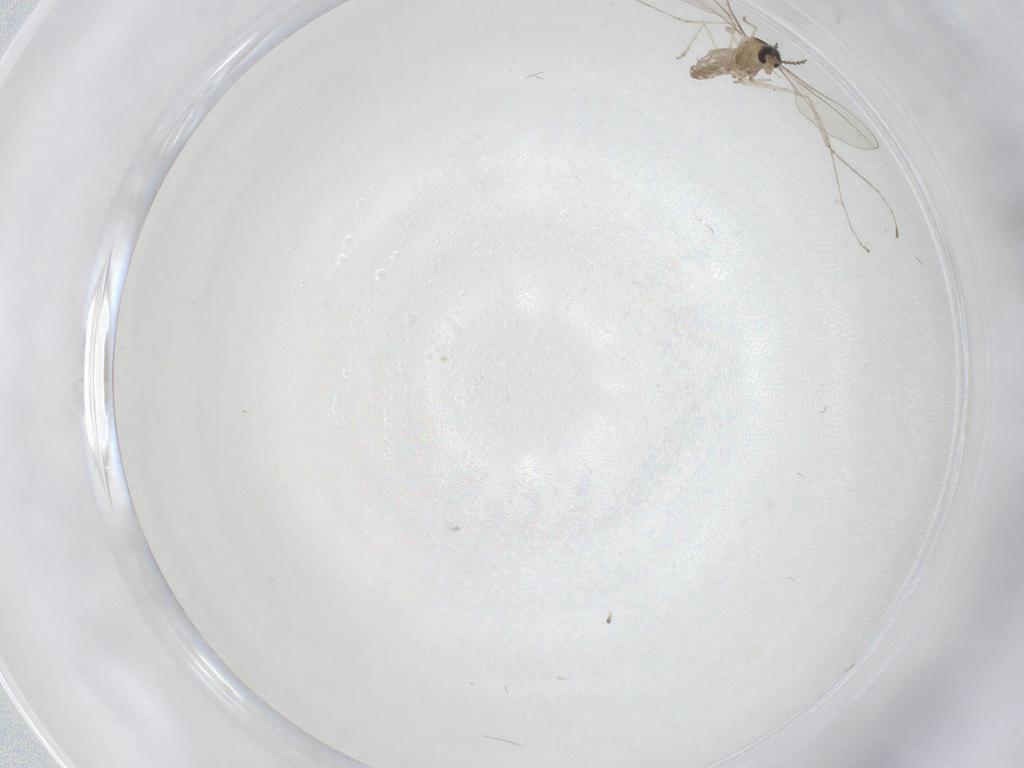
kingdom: Animalia
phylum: Arthropoda
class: Insecta
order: Diptera
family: Cecidomyiidae
